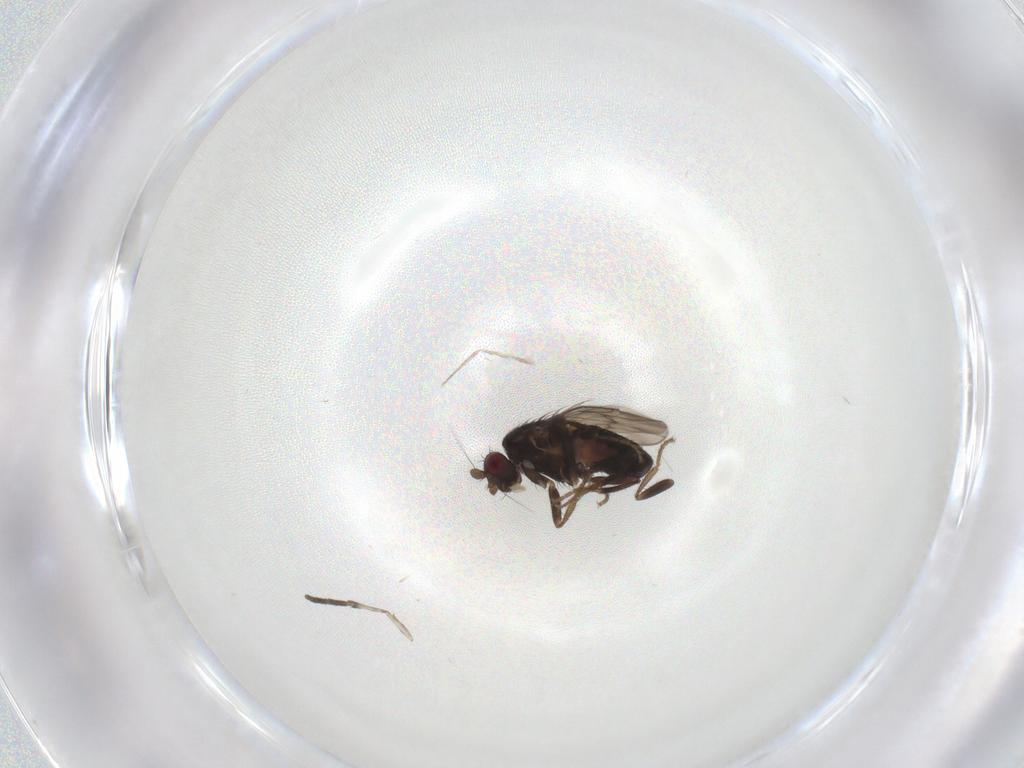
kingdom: Animalia
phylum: Arthropoda
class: Insecta
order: Diptera
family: Sphaeroceridae
